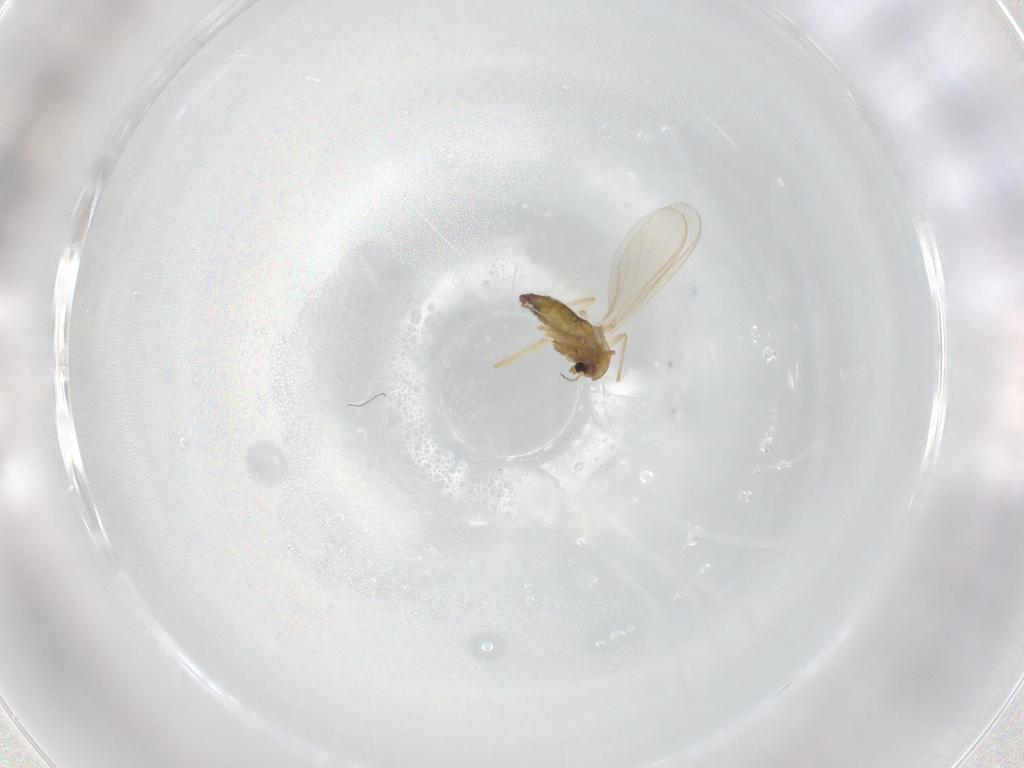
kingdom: Animalia
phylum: Arthropoda
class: Insecta
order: Diptera
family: Chironomidae
